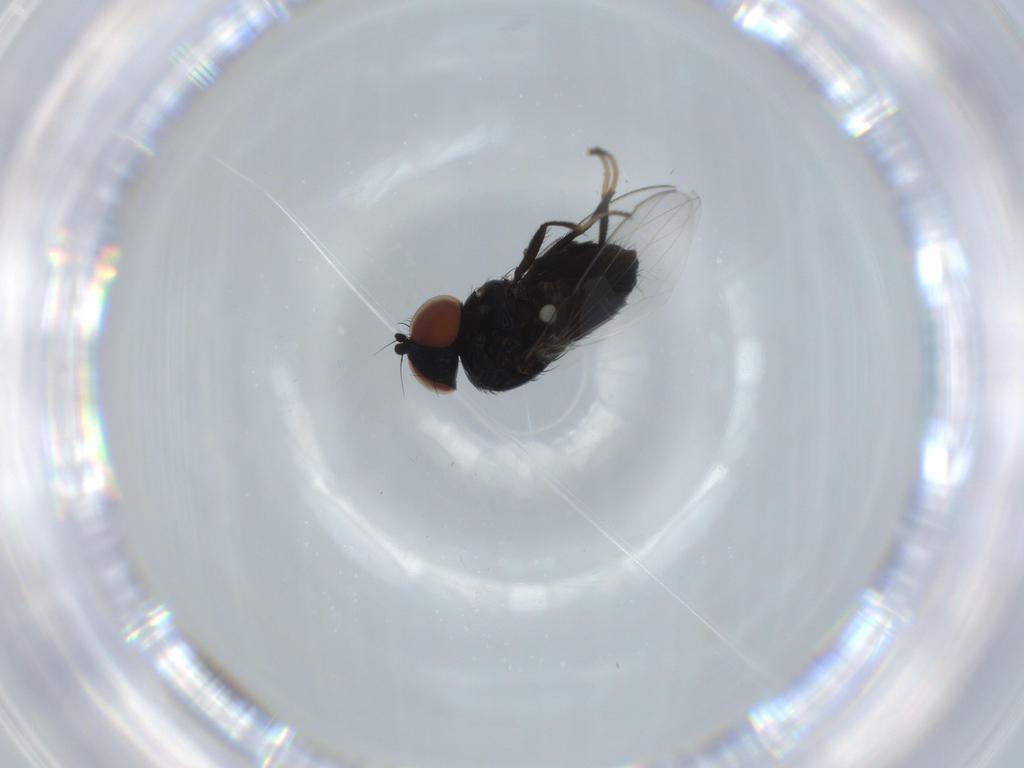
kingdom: Animalia
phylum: Arthropoda
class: Insecta
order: Diptera
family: Milichiidae
